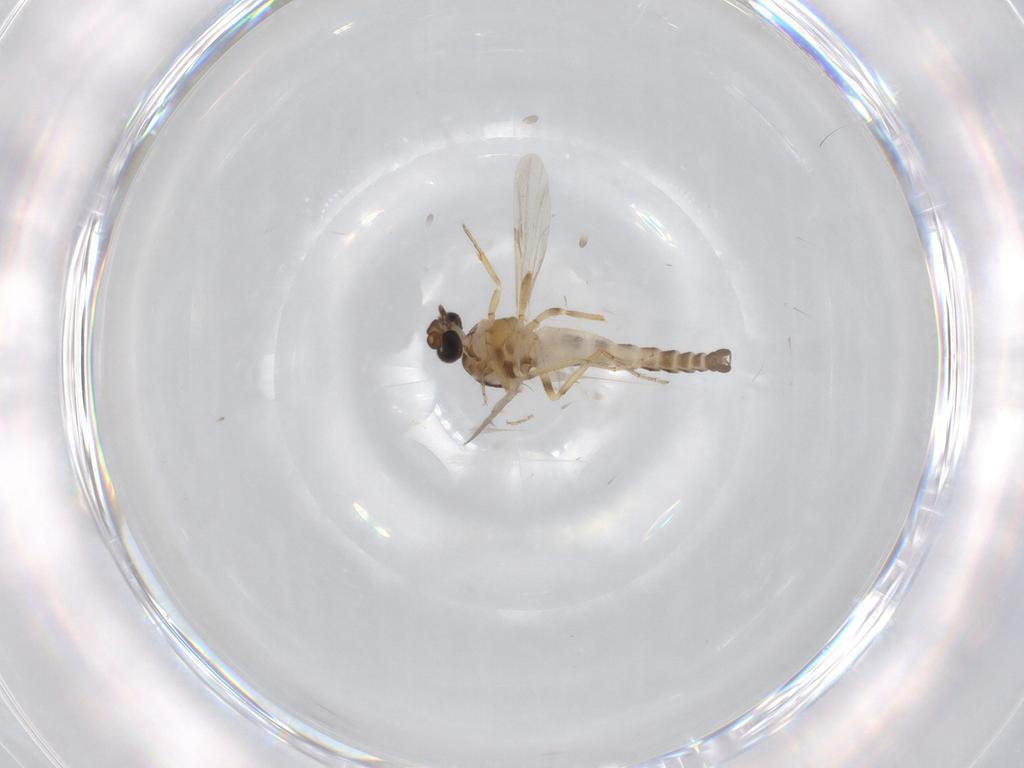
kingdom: Animalia
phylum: Arthropoda
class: Insecta
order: Diptera
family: Cecidomyiidae
